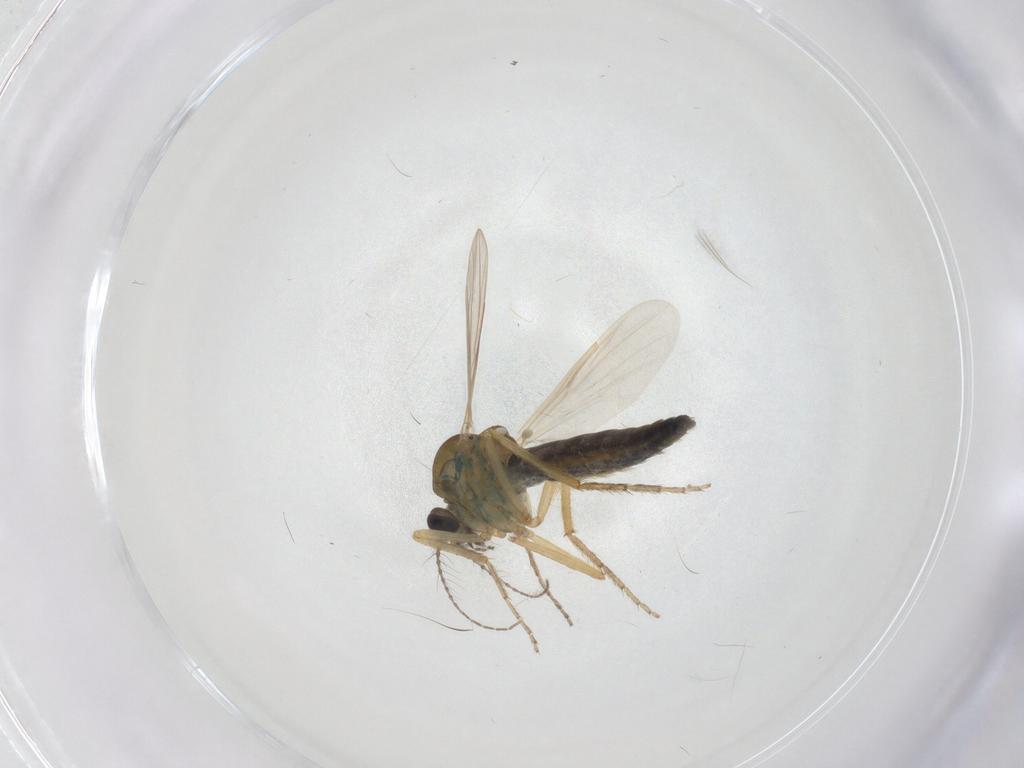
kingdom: Animalia
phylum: Arthropoda
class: Insecta
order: Diptera
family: Ceratopogonidae
